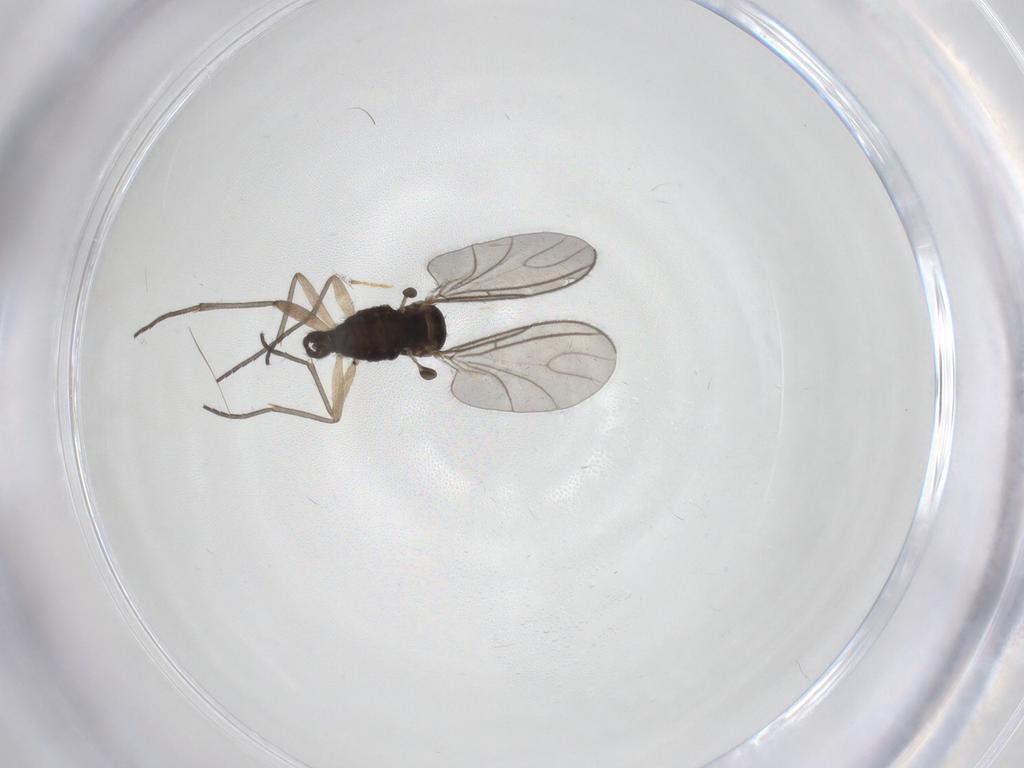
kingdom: Animalia
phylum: Arthropoda
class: Insecta
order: Diptera
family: Sciaridae
